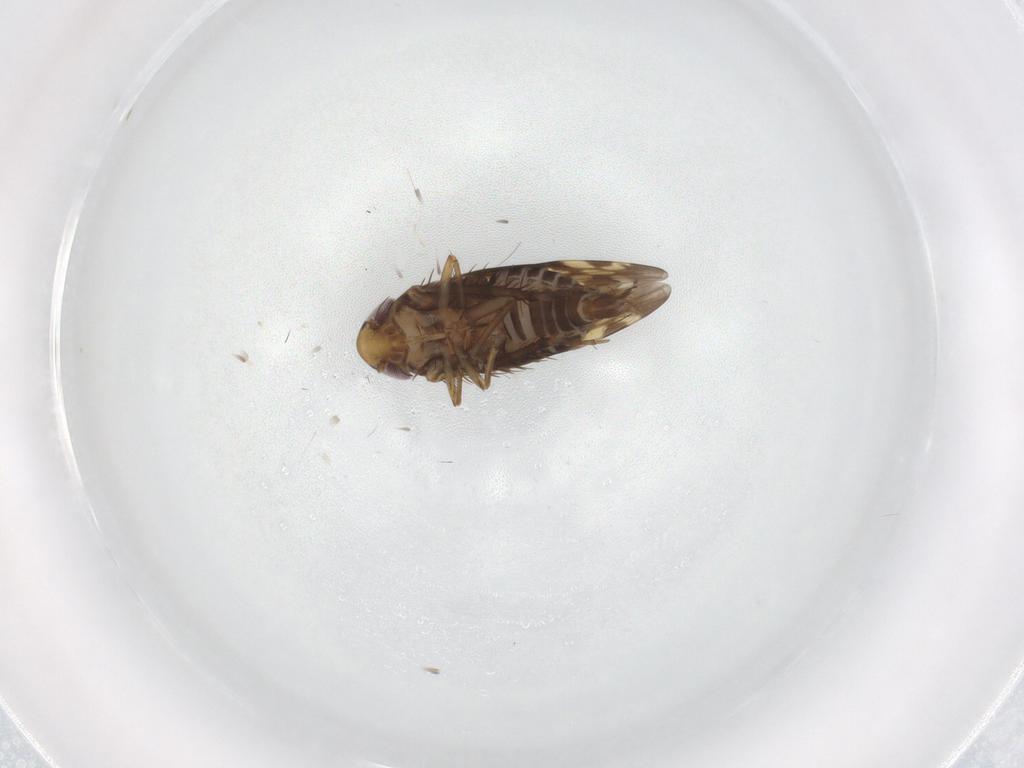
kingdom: Animalia
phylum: Arthropoda
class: Insecta
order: Hemiptera
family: Cicadellidae
